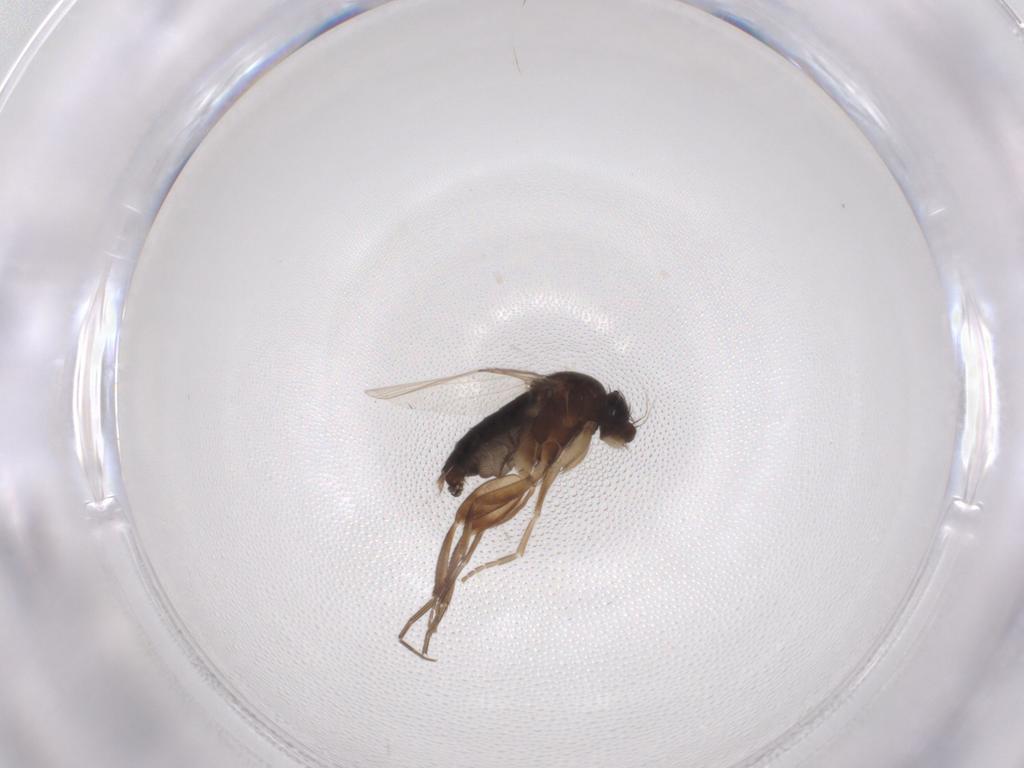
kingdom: Animalia
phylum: Arthropoda
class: Insecta
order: Diptera
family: Phoridae
